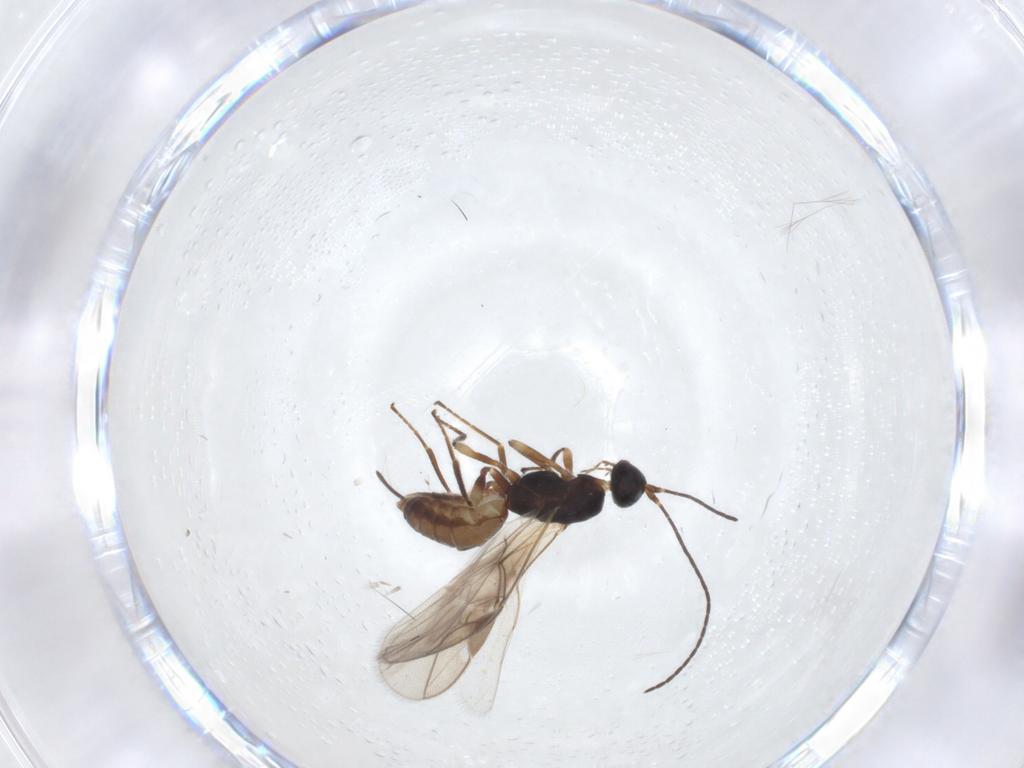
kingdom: Animalia
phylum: Arthropoda
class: Insecta
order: Hymenoptera
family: Braconidae
